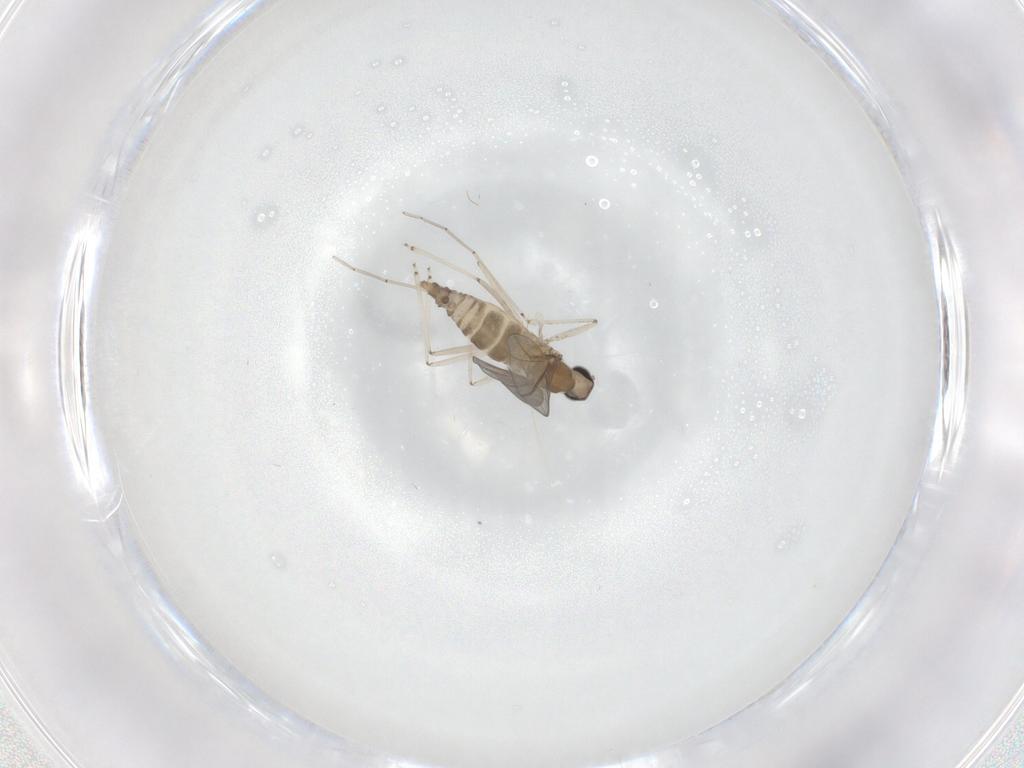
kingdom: Animalia
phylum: Arthropoda
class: Insecta
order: Diptera
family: Cecidomyiidae
